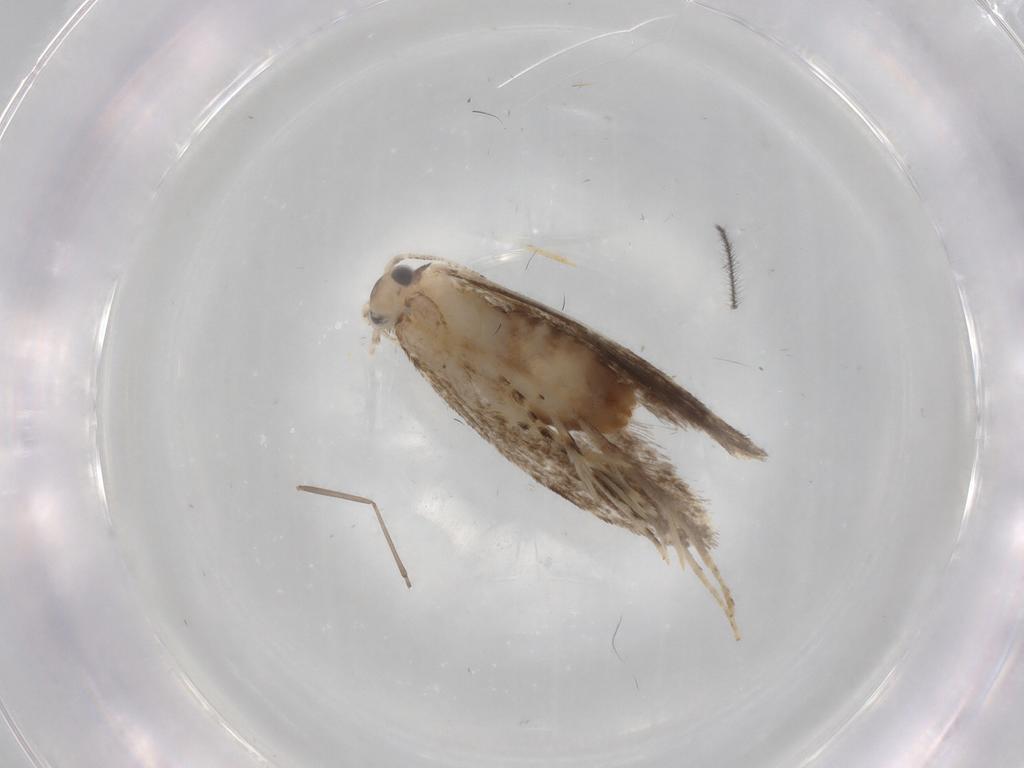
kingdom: Animalia
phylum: Arthropoda
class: Insecta
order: Lepidoptera
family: Tineidae
